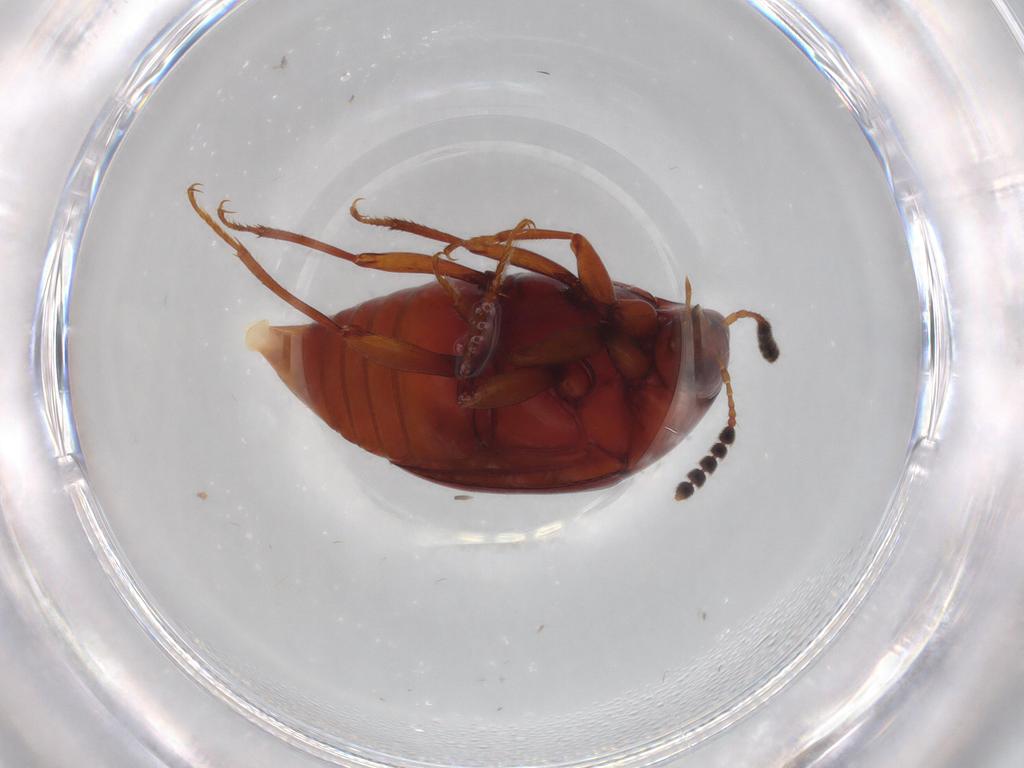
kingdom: Animalia
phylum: Arthropoda
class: Insecta
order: Coleoptera
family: Staphylinidae
